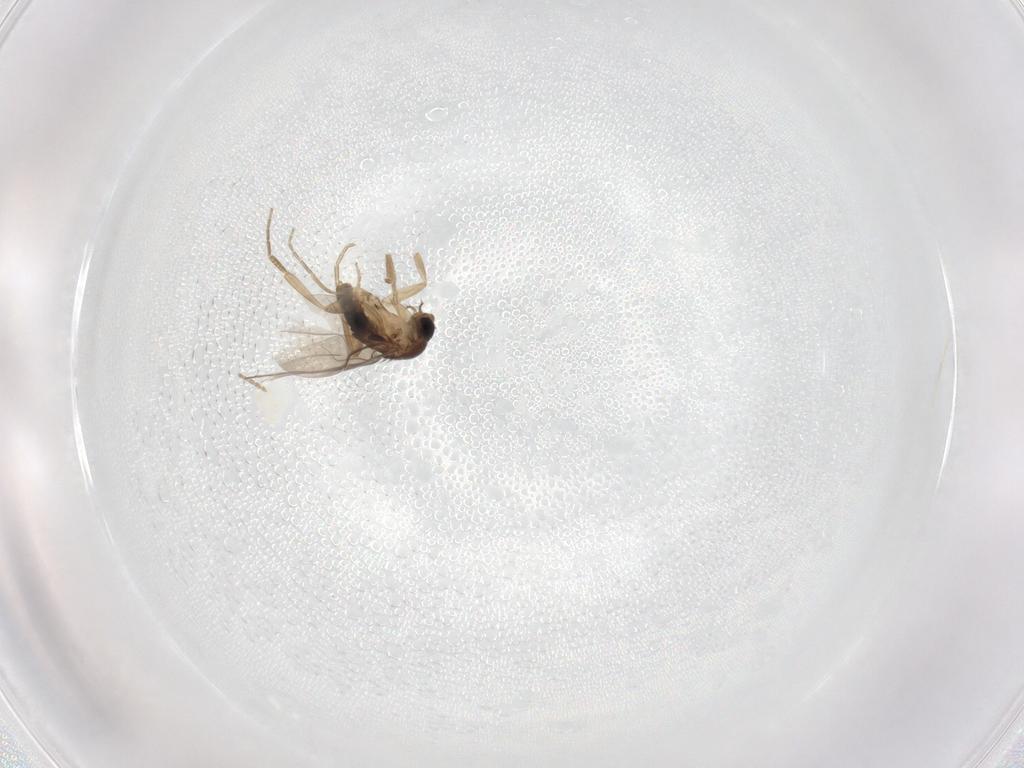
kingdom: Animalia
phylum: Arthropoda
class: Insecta
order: Diptera
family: Phoridae
